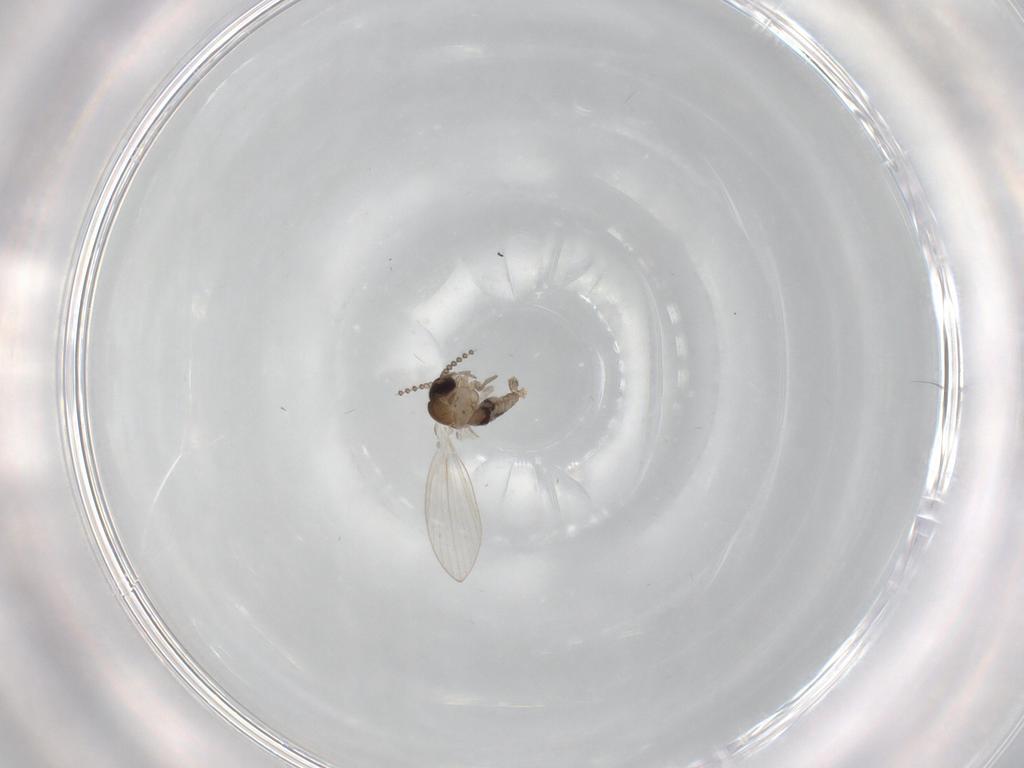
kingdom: Animalia
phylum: Arthropoda
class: Insecta
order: Diptera
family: Psychodidae
